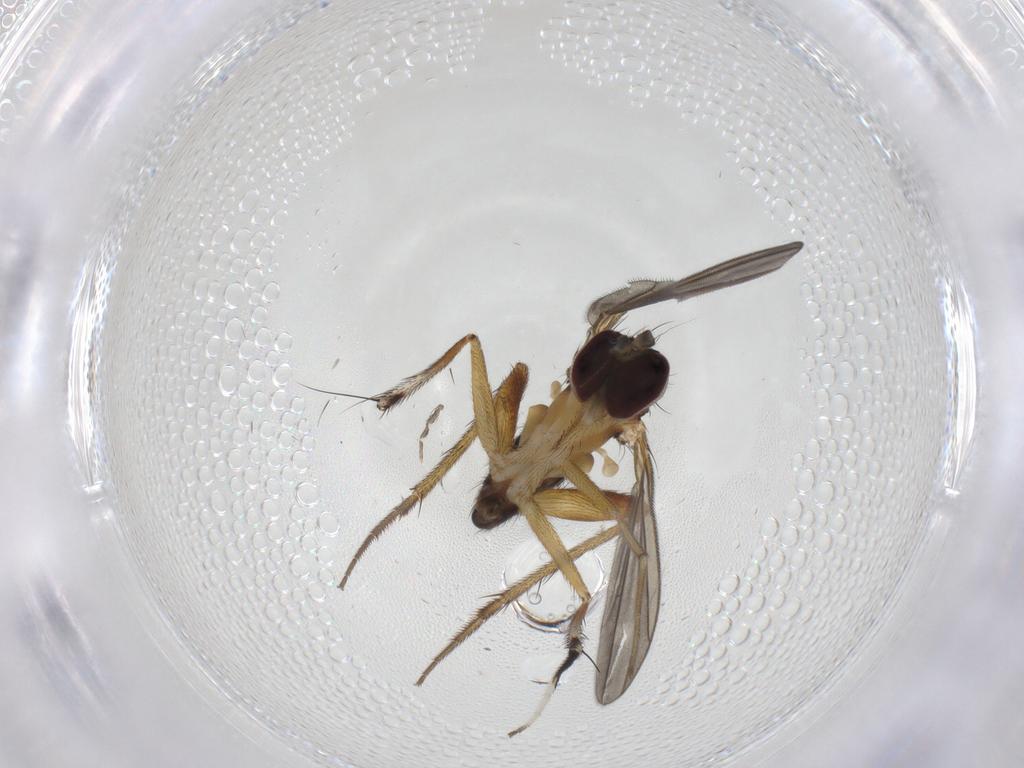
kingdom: Animalia
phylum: Arthropoda
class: Insecta
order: Diptera
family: Dolichopodidae
